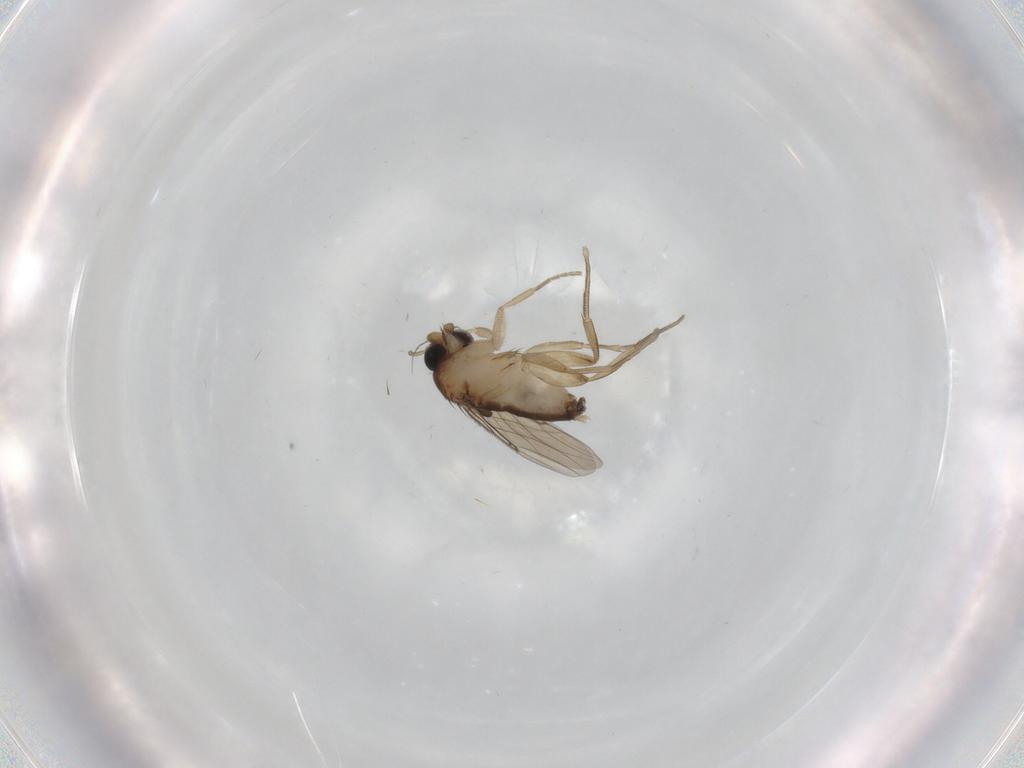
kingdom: Animalia
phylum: Arthropoda
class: Insecta
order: Diptera
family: Phoridae
